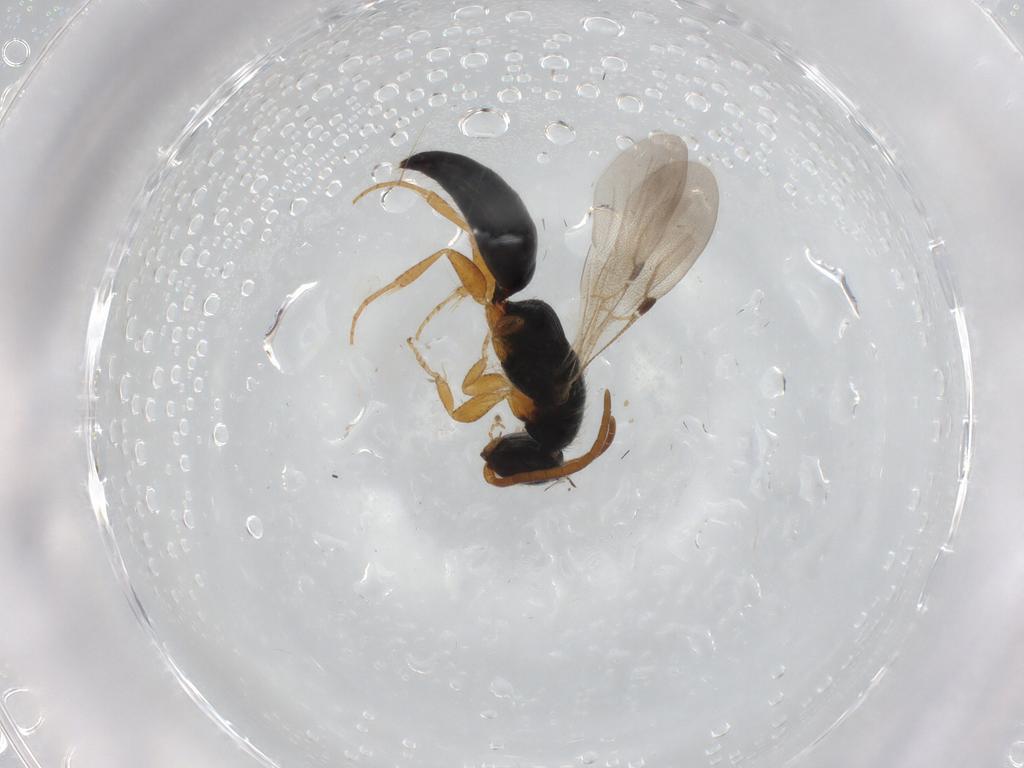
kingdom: Animalia
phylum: Arthropoda
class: Insecta
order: Hymenoptera
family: Bethylidae
